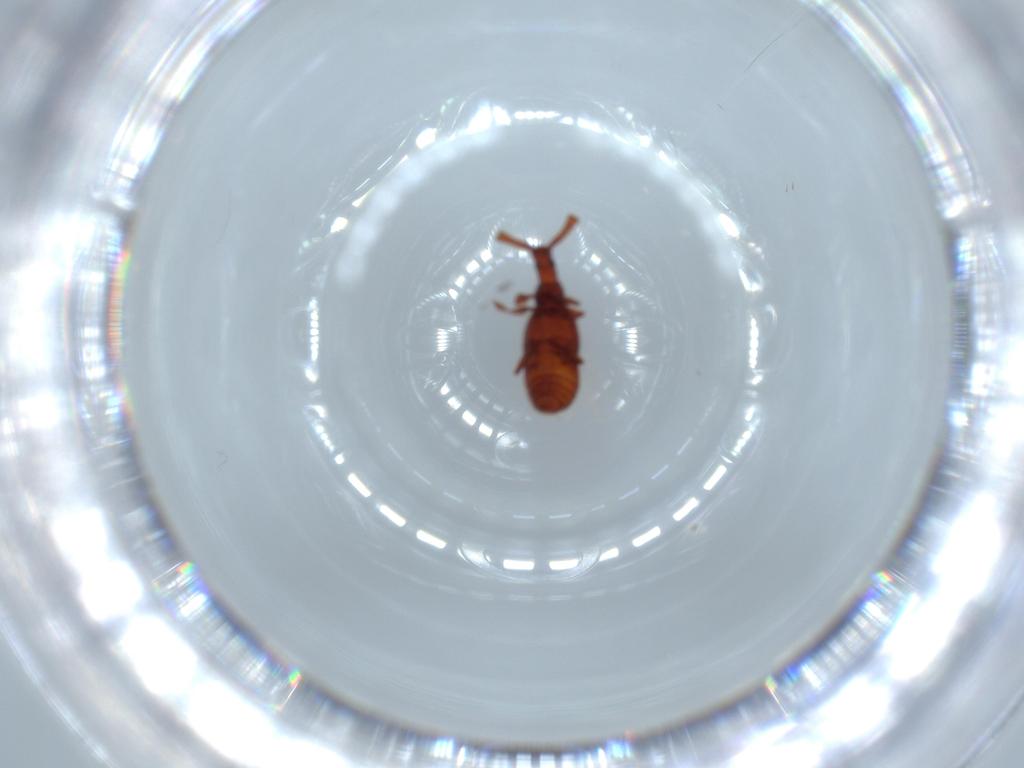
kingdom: Animalia
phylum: Arthropoda
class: Insecta
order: Coleoptera
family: Staphylinidae
